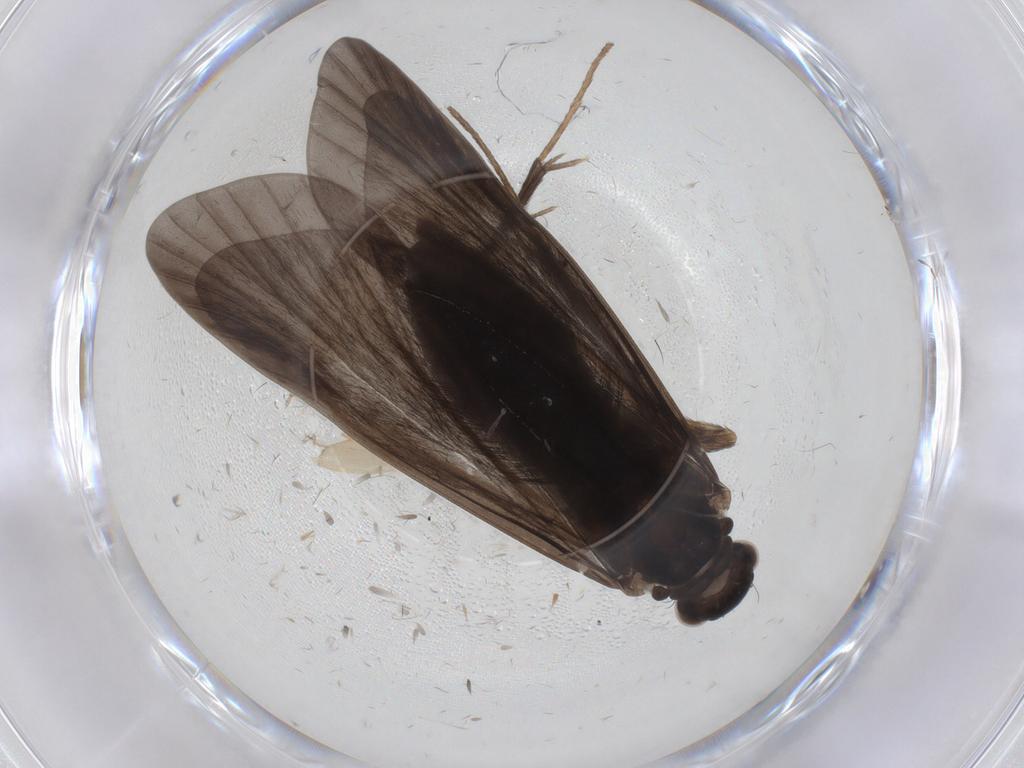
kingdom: Animalia
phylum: Arthropoda
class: Insecta
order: Trichoptera
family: Hydropsychidae
